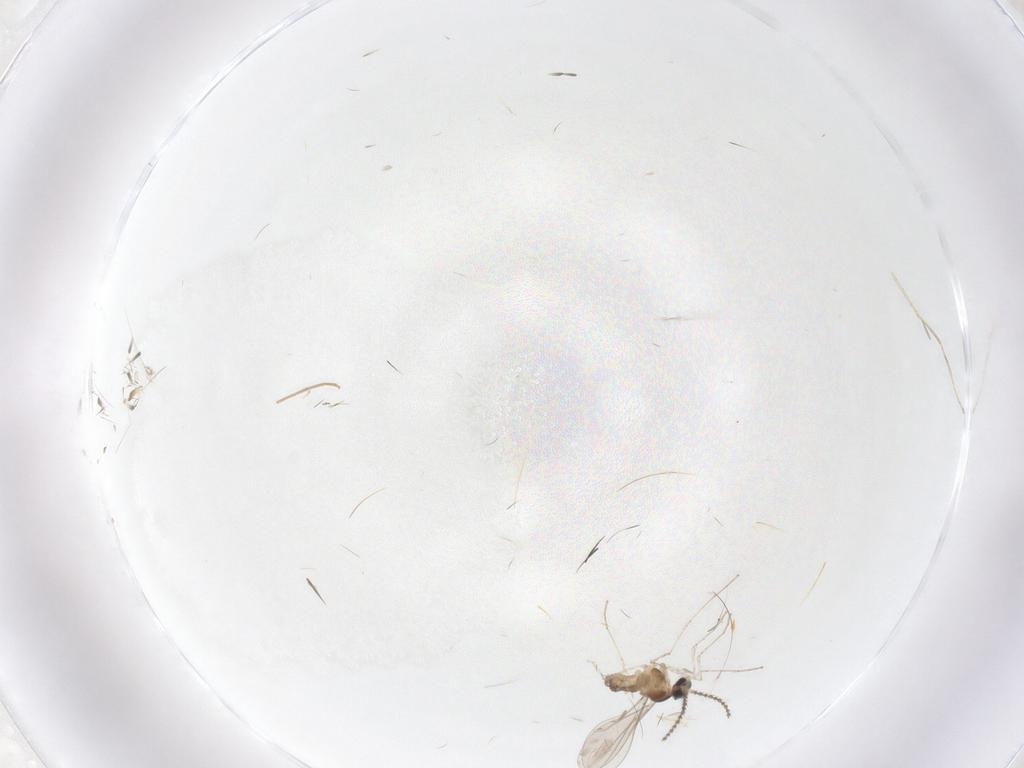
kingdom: Animalia
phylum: Arthropoda
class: Insecta
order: Diptera
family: Cecidomyiidae
